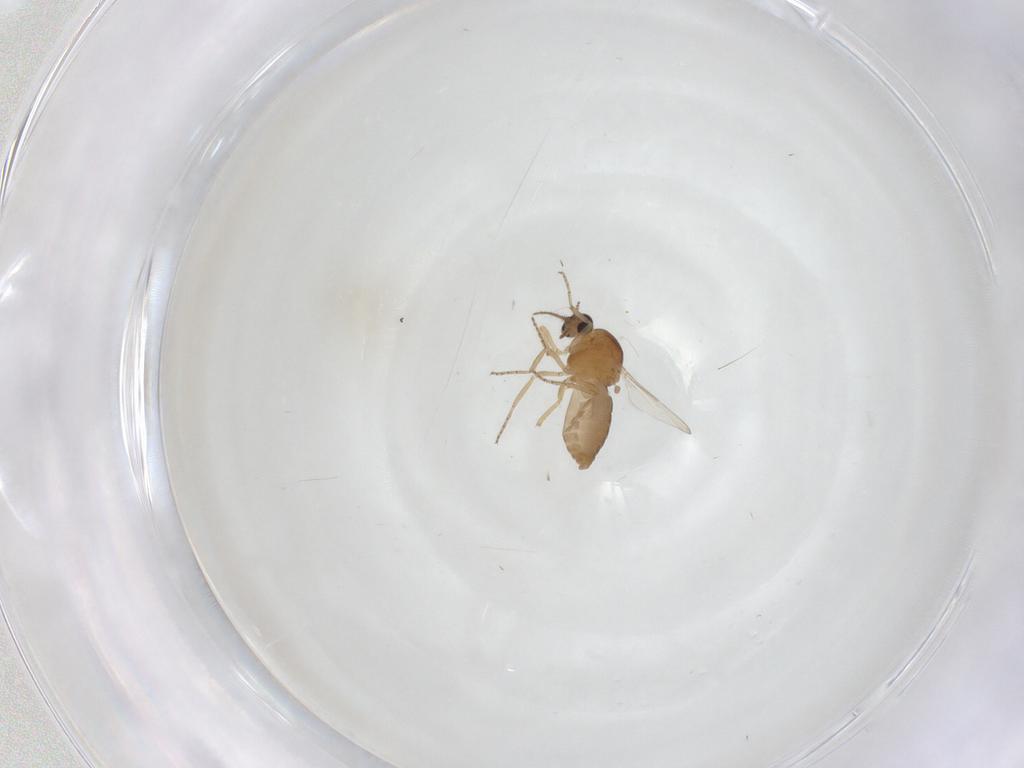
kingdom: Animalia
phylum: Arthropoda
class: Insecta
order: Diptera
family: Ceratopogonidae
